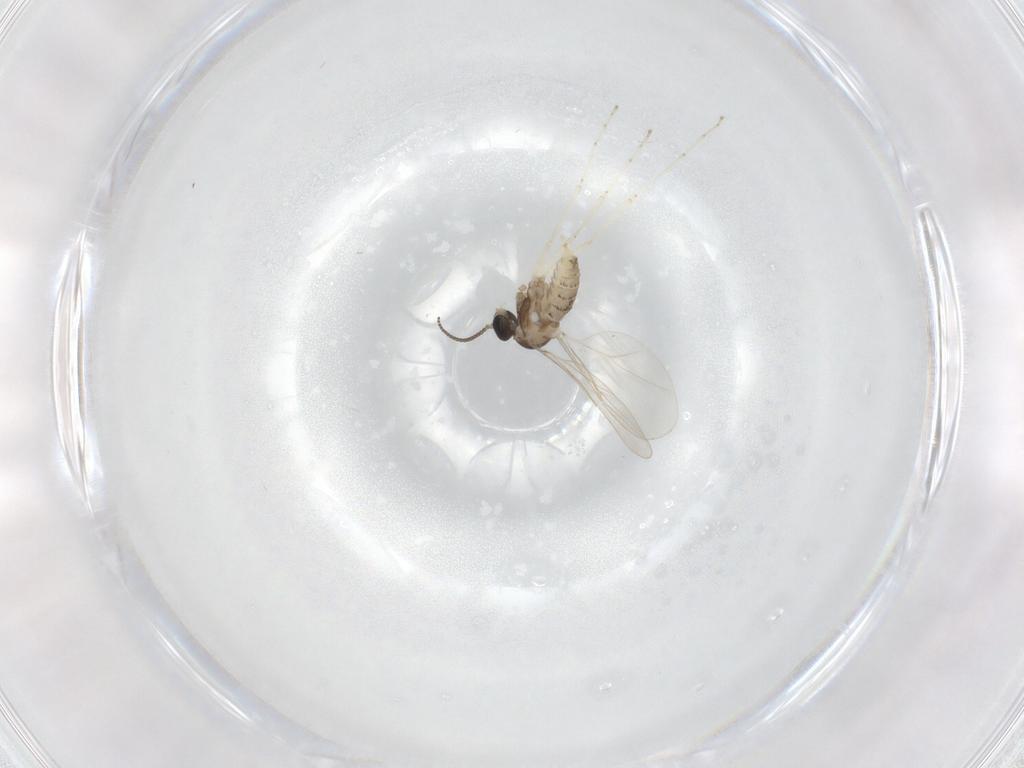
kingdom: Animalia
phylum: Arthropoda
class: Insecta
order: Diptera
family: Cecidomyiidae
